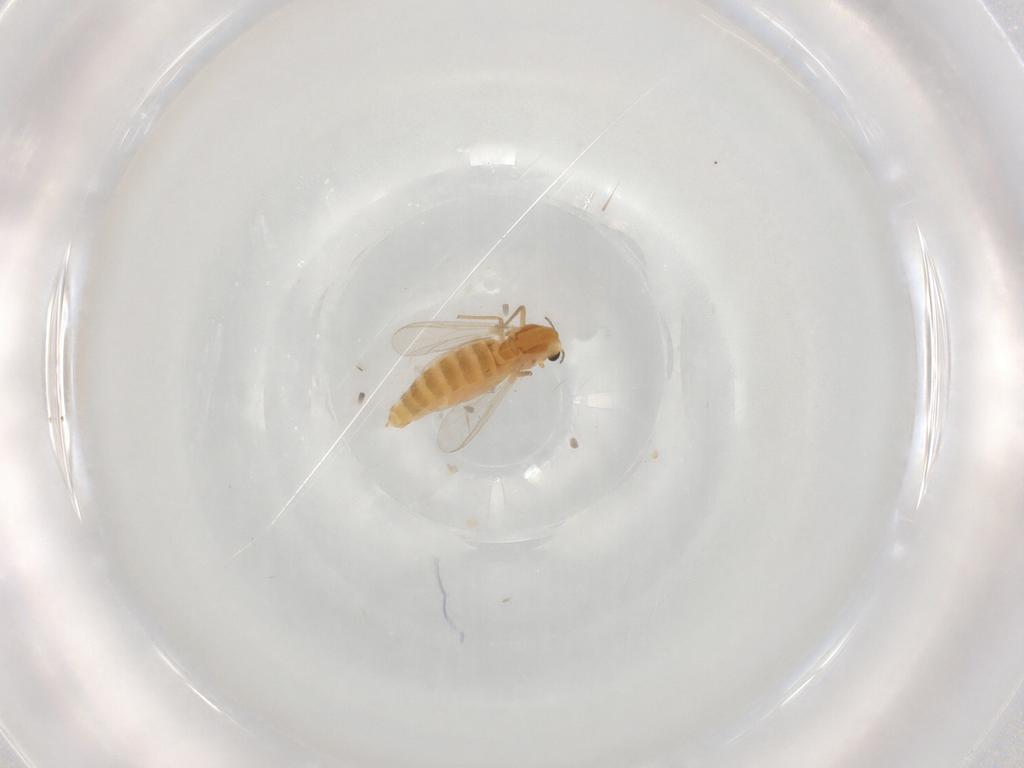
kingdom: Animalia
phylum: Arthropoda
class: Insecta
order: Diptera
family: Chironomidae
